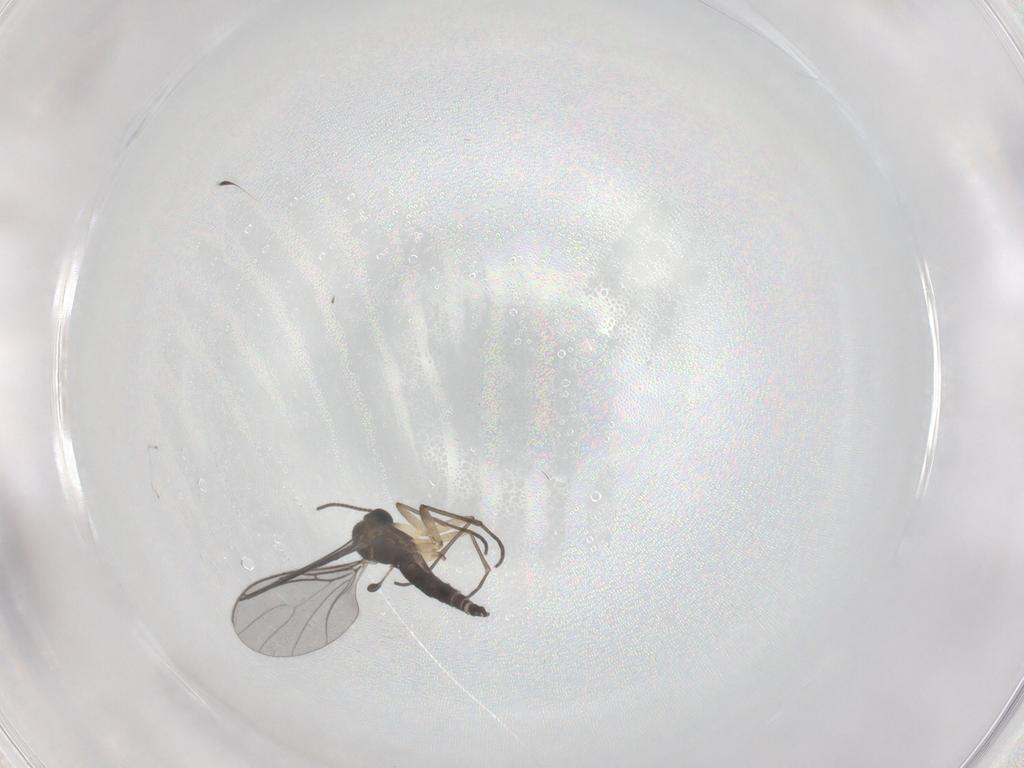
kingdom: Animalia
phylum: Arthropoda
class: Insecta
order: Diptera
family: Sciaridae
